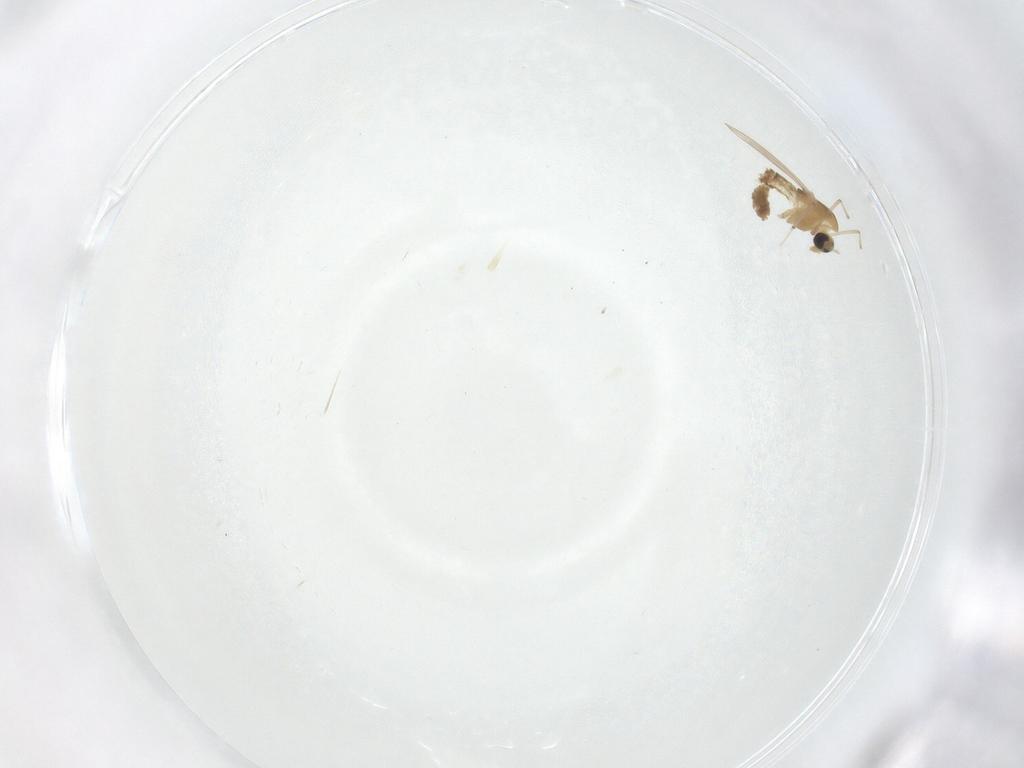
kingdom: Animalia
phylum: Arthropoda
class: Insecta
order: Diptera
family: Chironomidae
